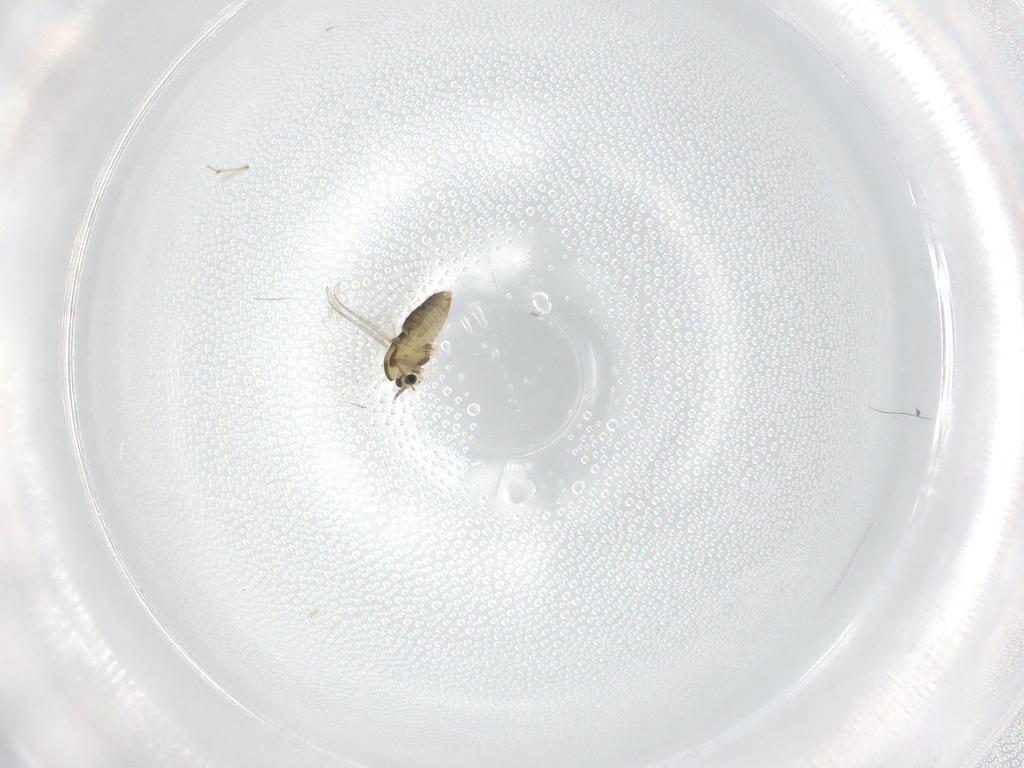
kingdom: Animalia
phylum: Arthropoda
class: Insecta
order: Diptera
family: Chironomidae
